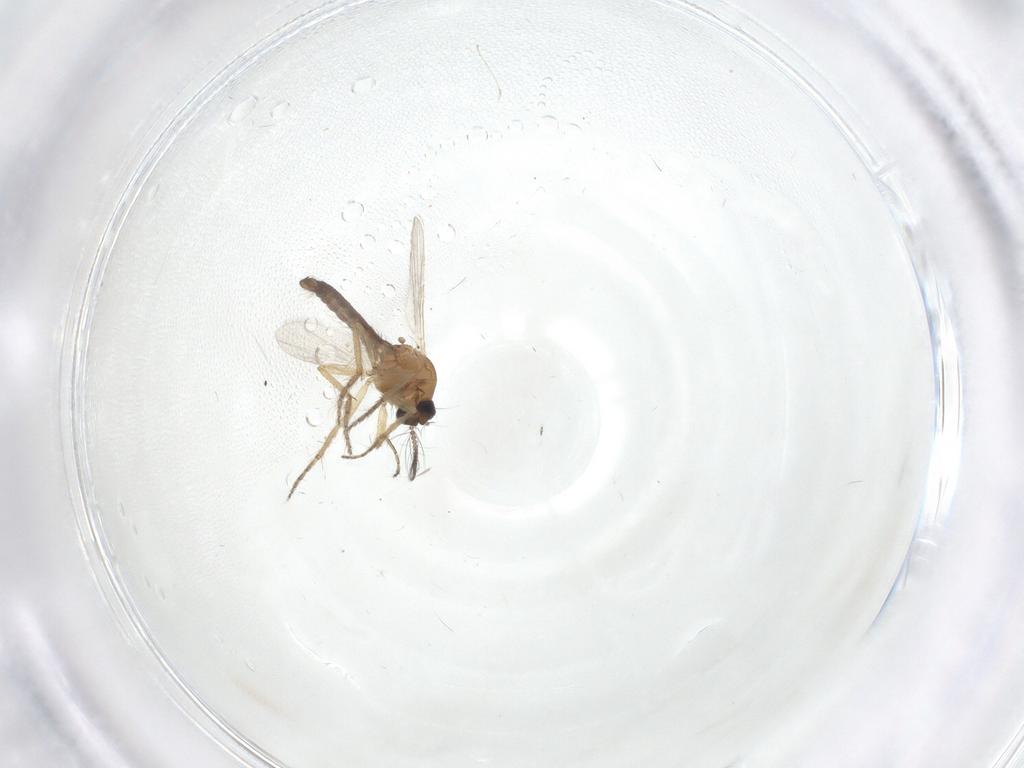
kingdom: Animalia
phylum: Arthropoda
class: Insecta
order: Diptera
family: Cecidomyiidae
